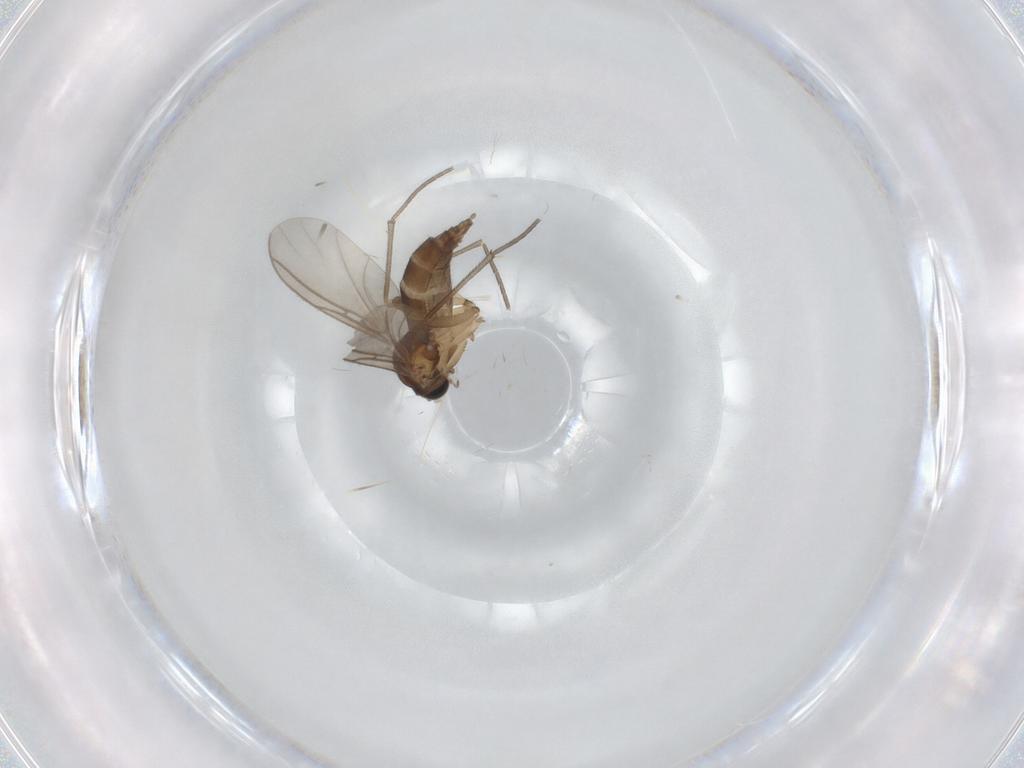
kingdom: Animalia
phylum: Arthropoda
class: Insecta
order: Diptera
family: Sciaridae
